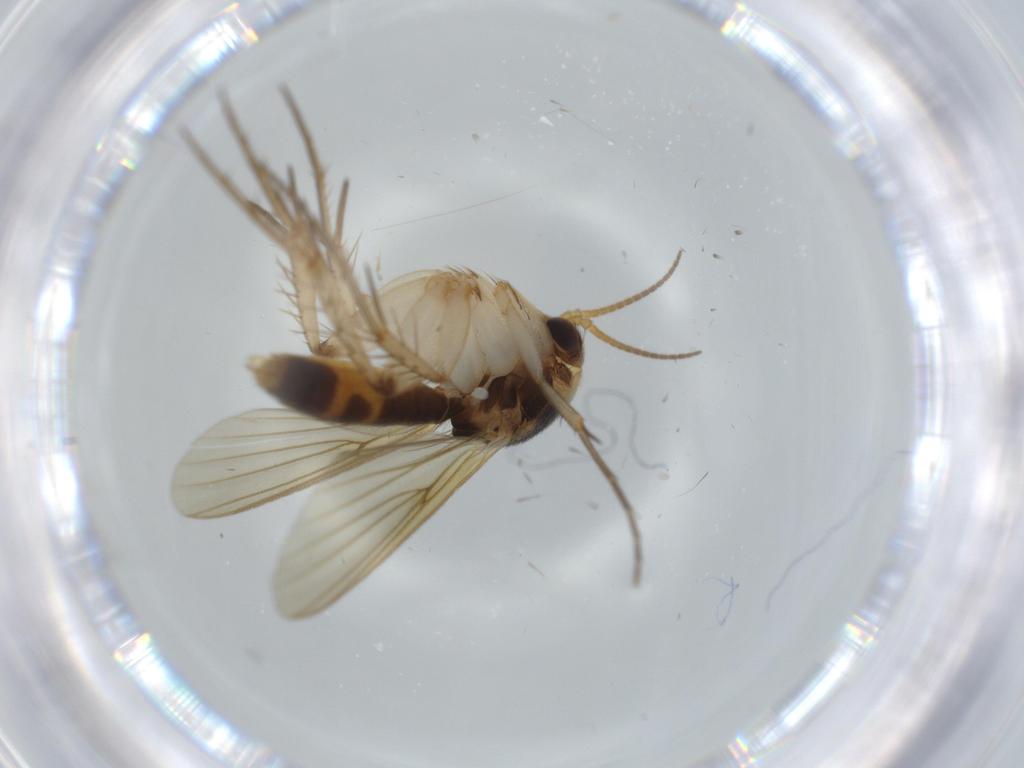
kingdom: Animalia
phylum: Arthropoda
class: Insecta
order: Diptera
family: Cecidomyiidae
